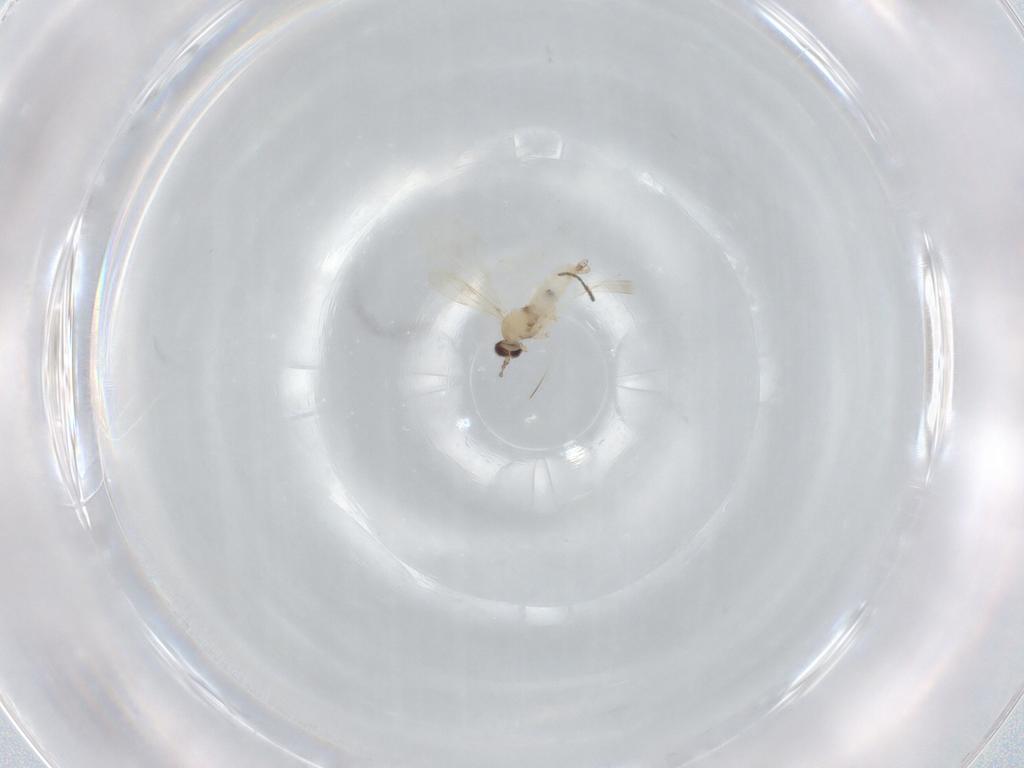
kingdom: Animalia
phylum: Arthropoda
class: Insecta
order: Diptera
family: Cecidomyiidae
